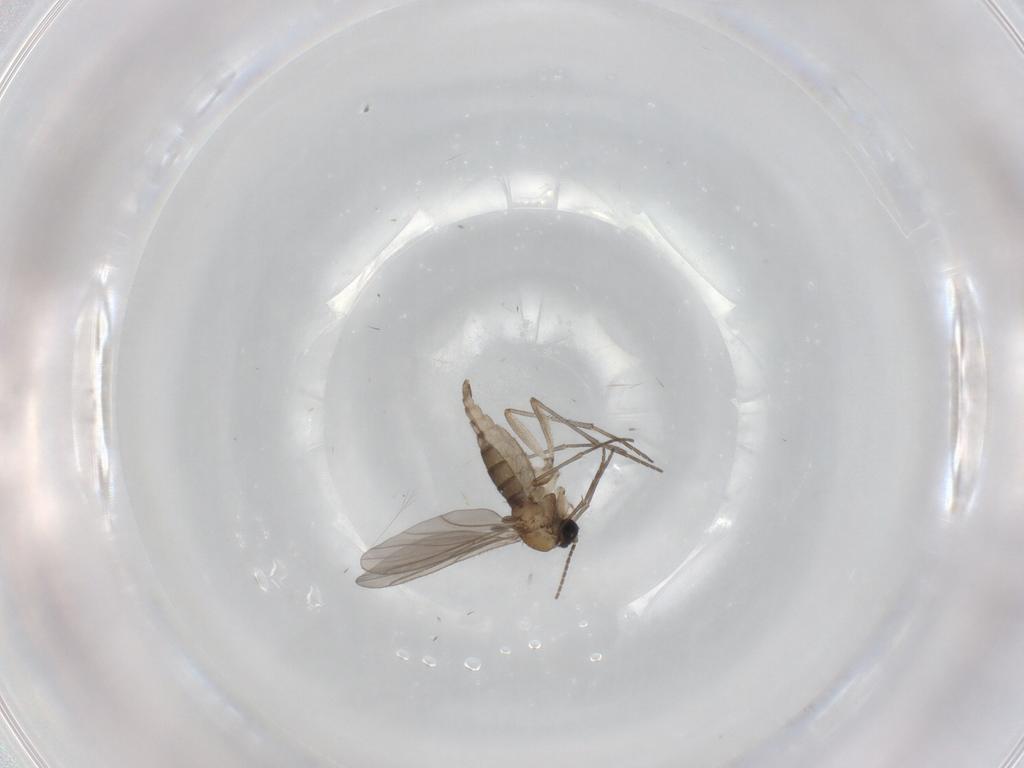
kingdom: Animalia
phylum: Arthropoda
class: Insecta
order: Diptera
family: Sciaridae
